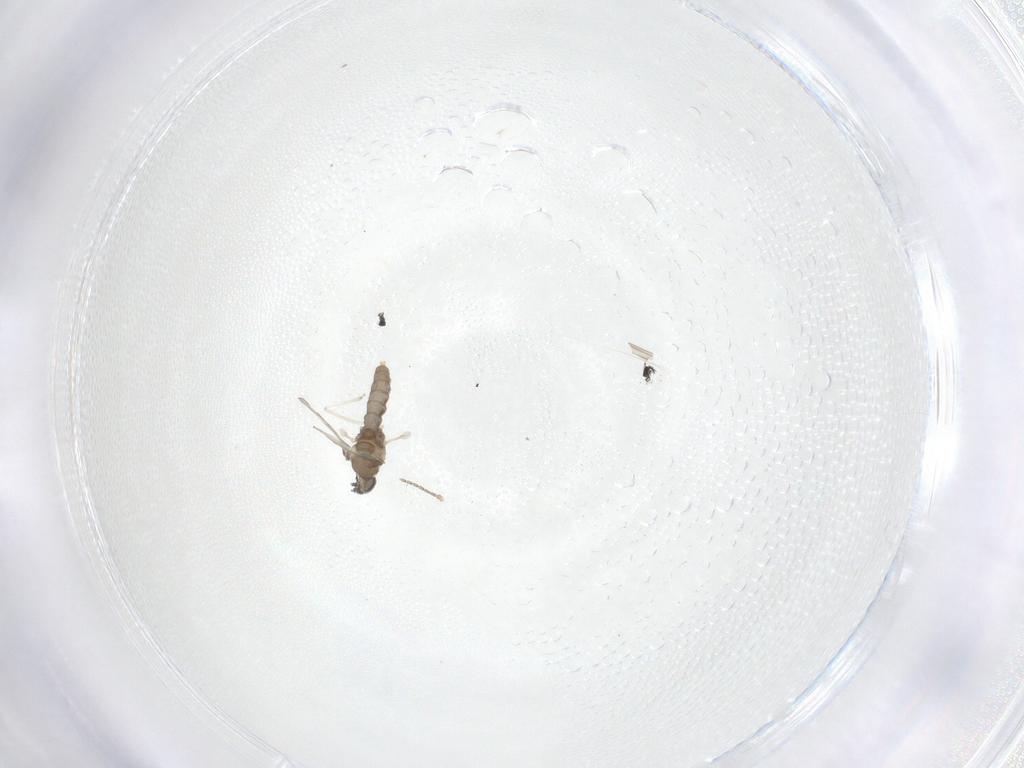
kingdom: Animalia
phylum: Arthropoda
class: Insecta
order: Diptera
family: Cecidomyiidae
